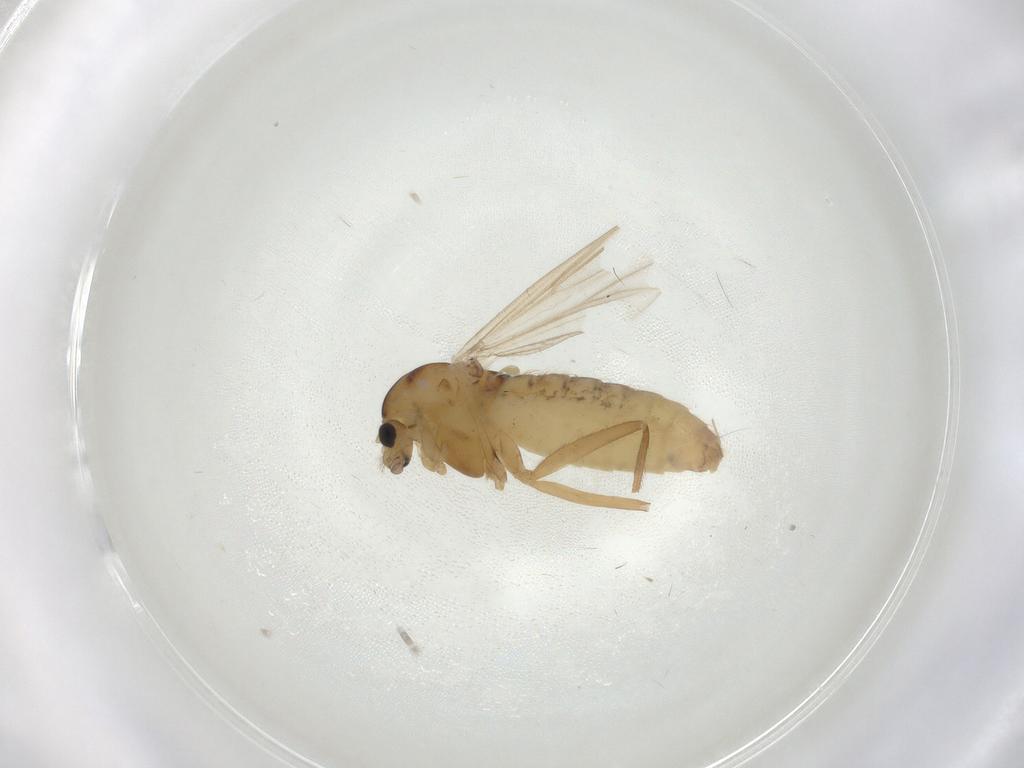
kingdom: Animalia
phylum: Arthropoda
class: Insecta
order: Diptera
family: Chironomidae
